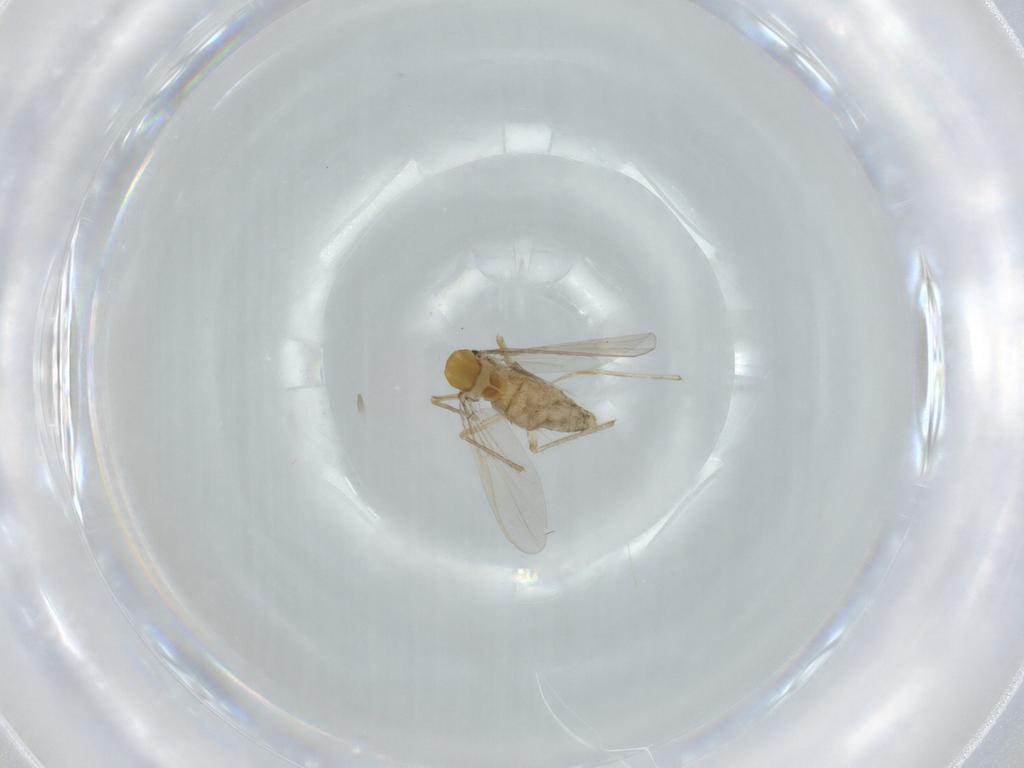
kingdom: Animalia
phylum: Arthropoda
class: Insecta
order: Diptera
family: Chironomidae
